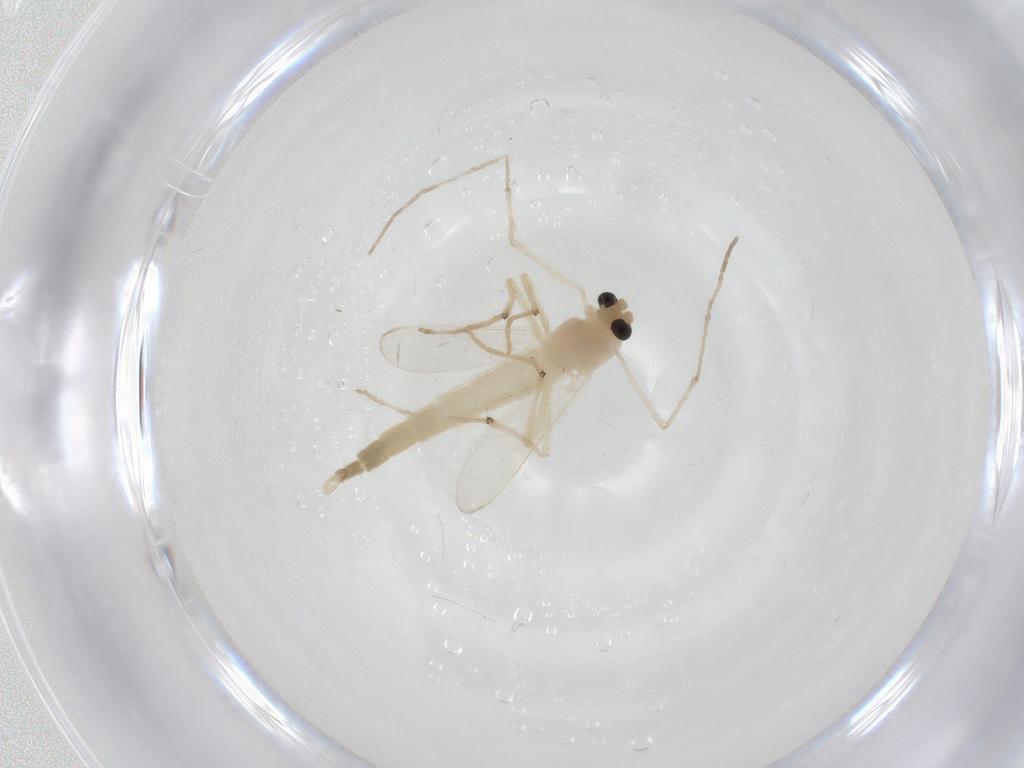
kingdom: Animalia
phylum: Arthropoda
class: Insecta
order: Diptera
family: Chironomidae
